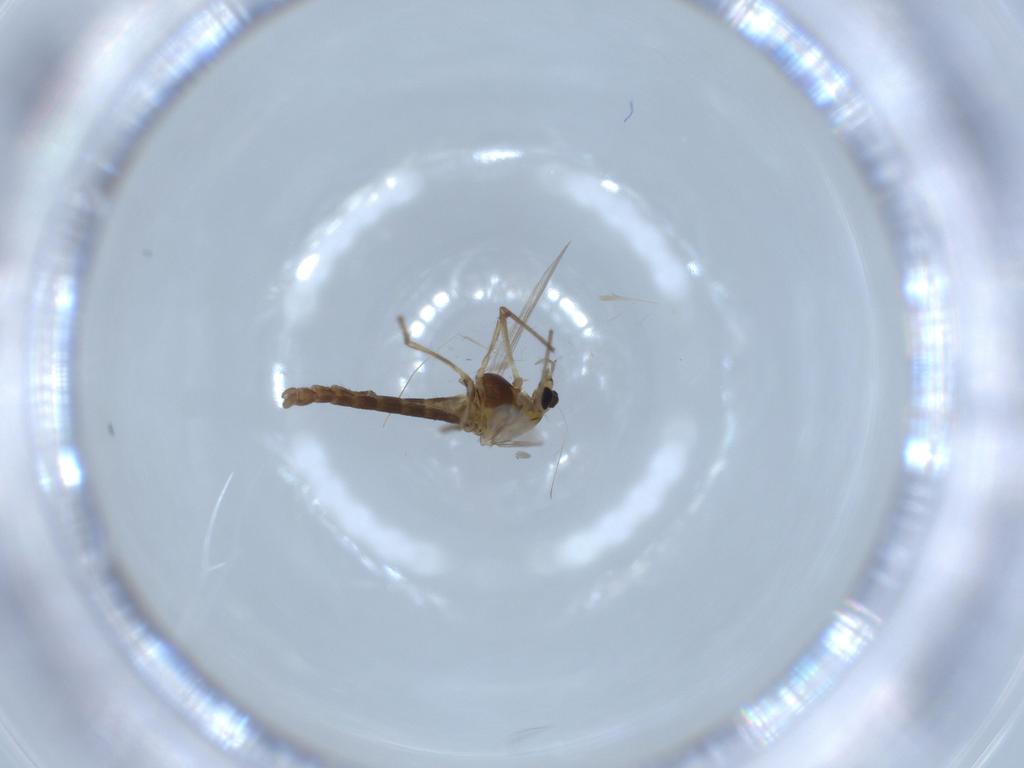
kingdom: Animalia
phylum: Arthropoda
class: Insecta
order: Diptera
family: Chironomidae
